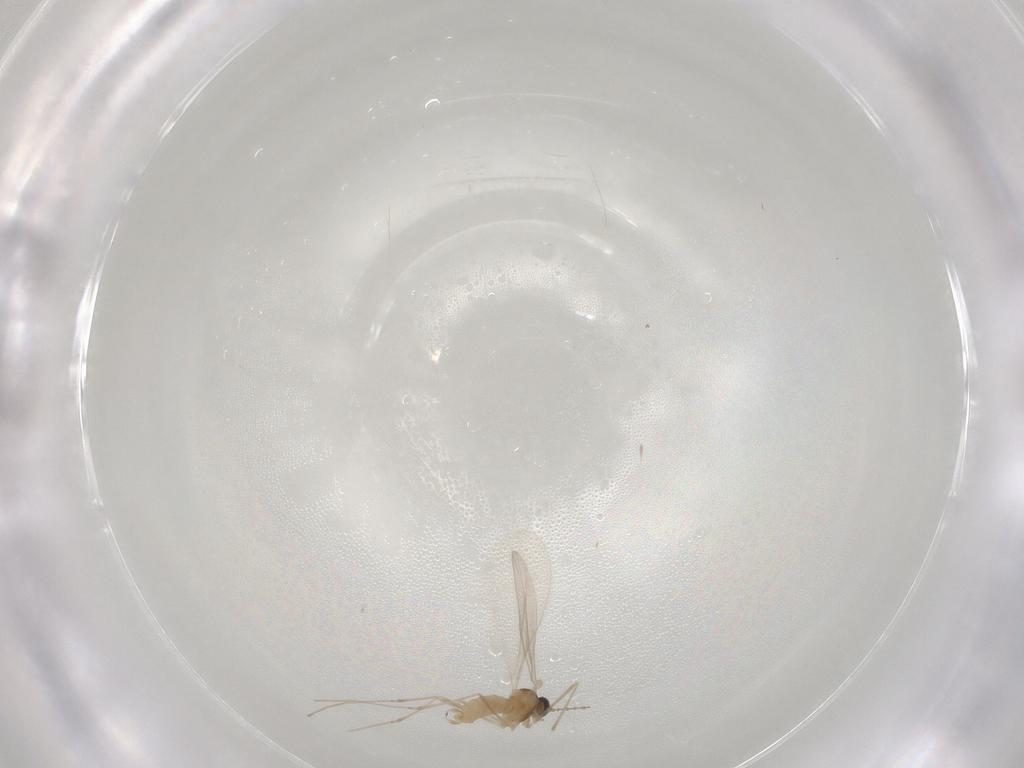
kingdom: Animalia
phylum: Arthropoda
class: Insecta
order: Diptera
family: Cecidomyiidae
